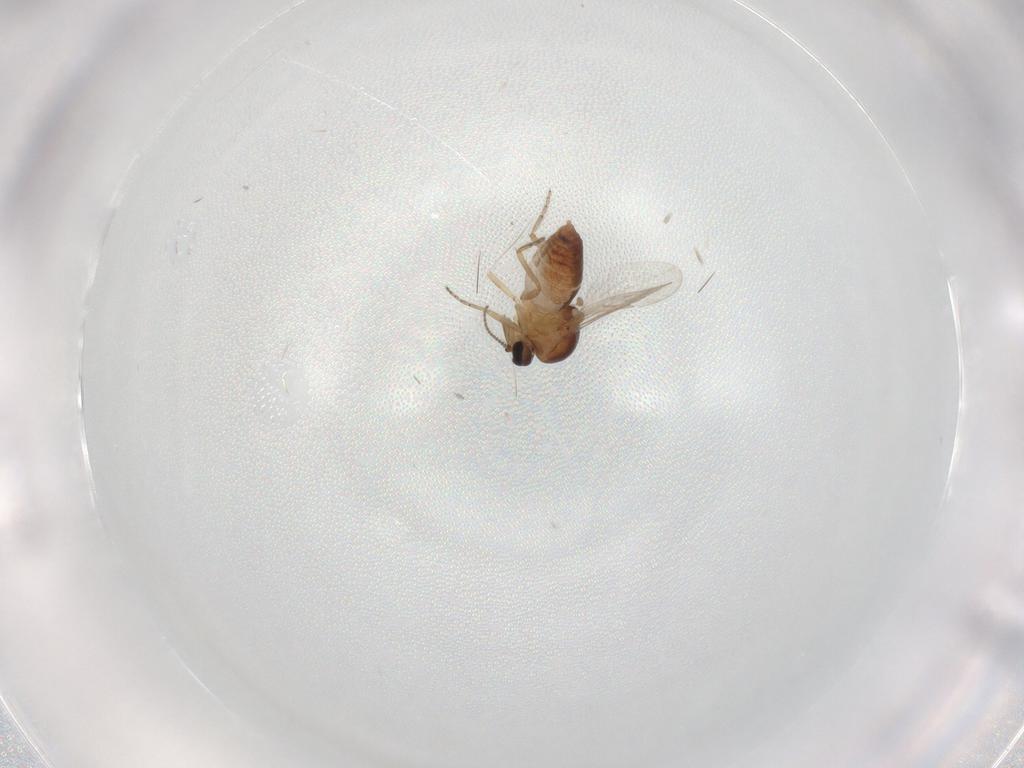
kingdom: Animalia
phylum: Arthropoda
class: Insecta
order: Diptera
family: Ceratopogonidae
